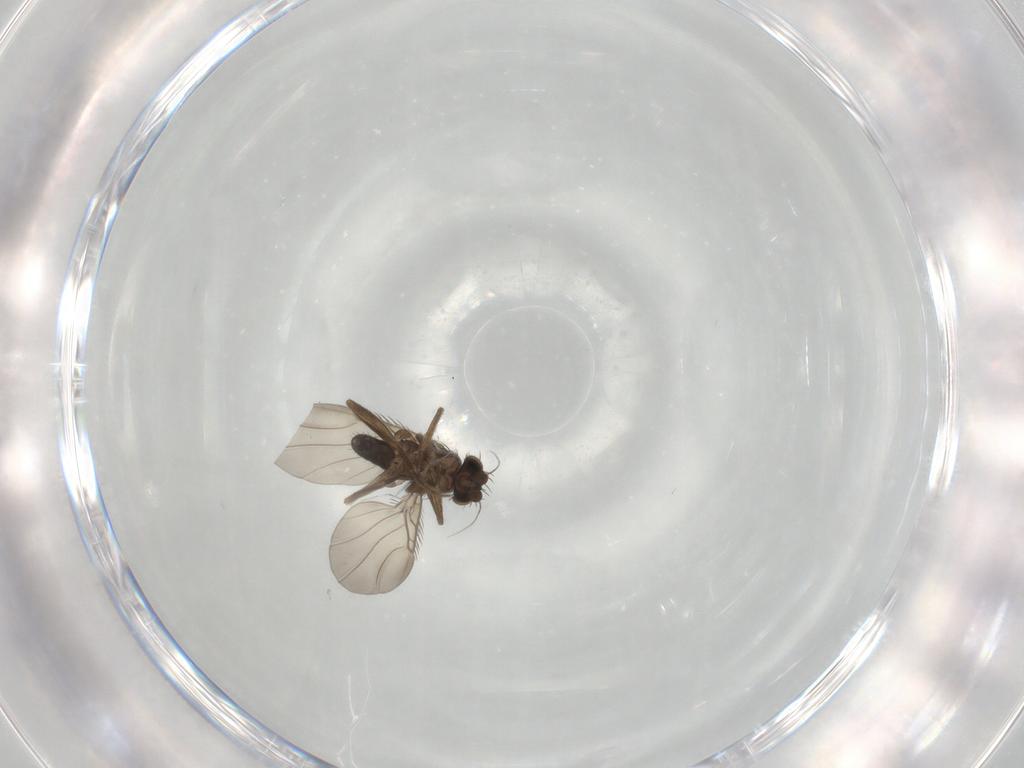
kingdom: Animalia
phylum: Arthropoda
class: Insecta
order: Diptera
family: Phoridae
